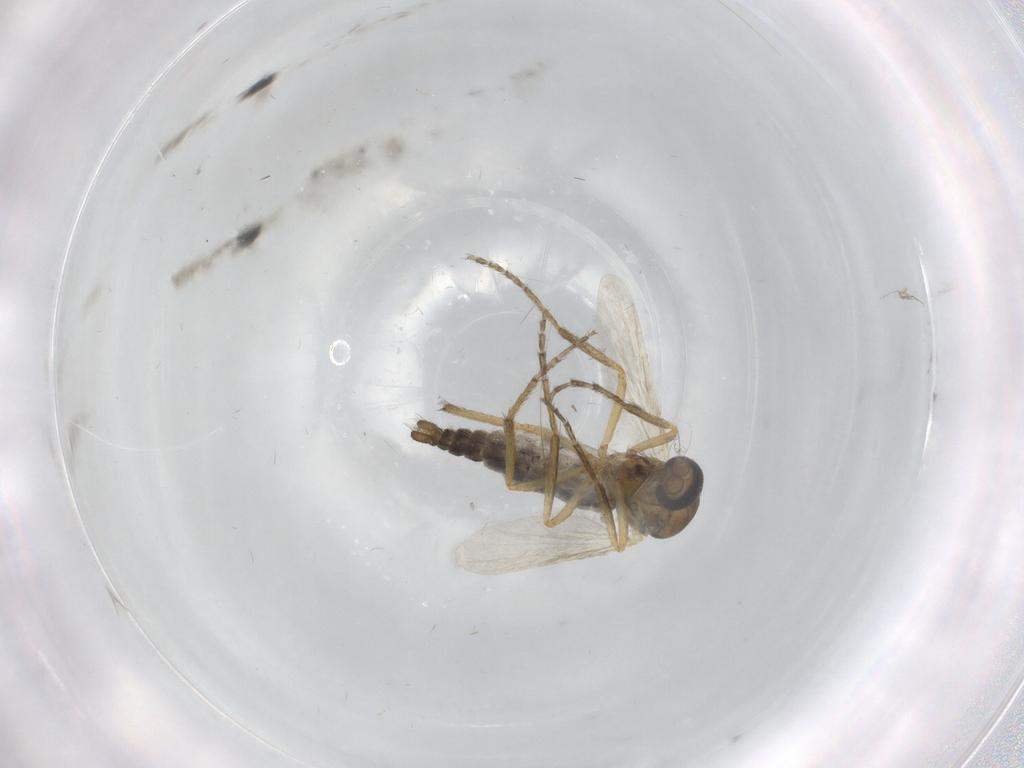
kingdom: Animalia
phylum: Arthropoda
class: Insecta
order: Diptera
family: Ceratopogonidae
